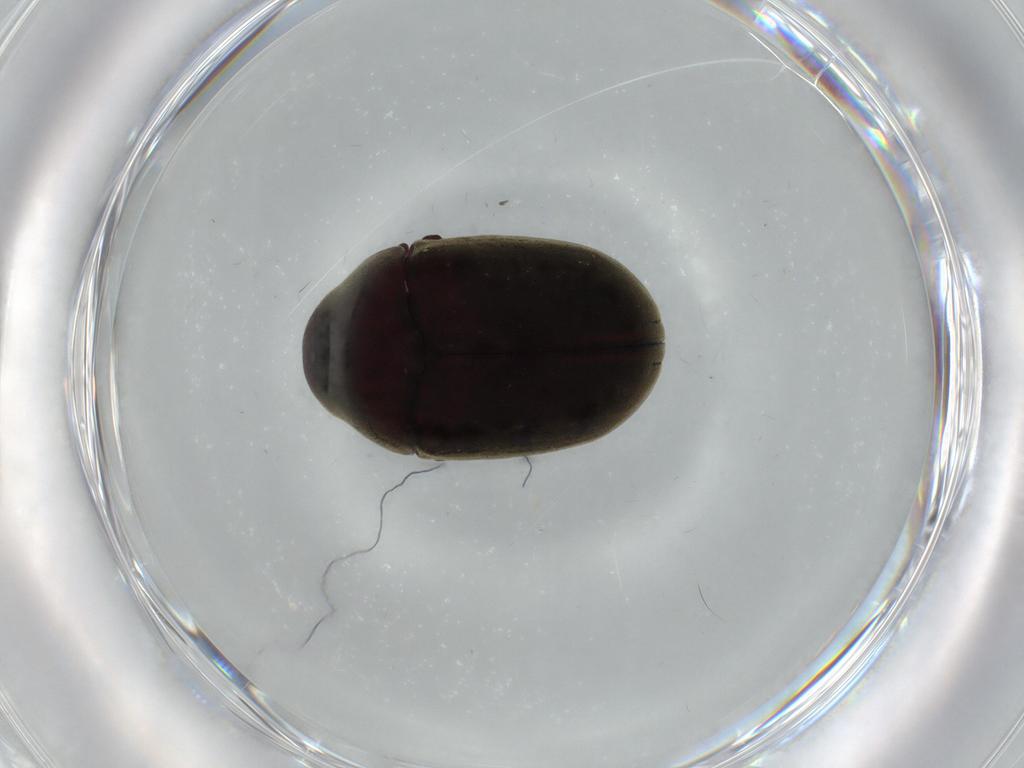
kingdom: Animalia
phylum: Arthropoda
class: Insecta
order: Coleoptera
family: Ptinidae
